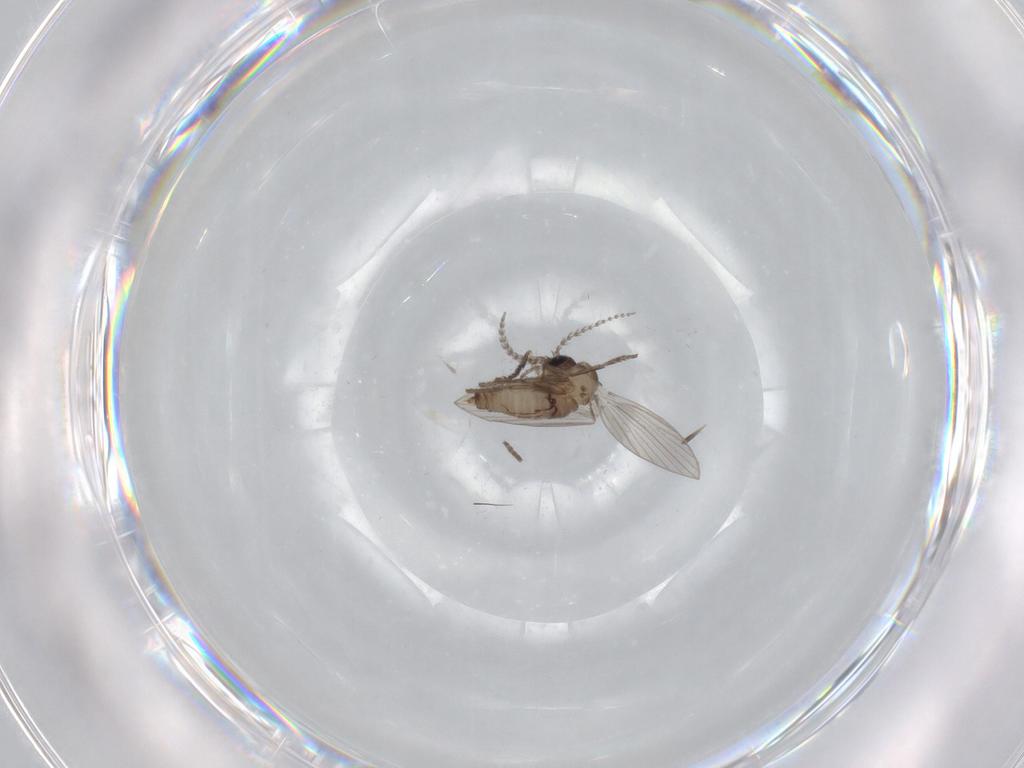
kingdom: Animalia
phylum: Arthropoda
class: Insecta
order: Diptera
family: Psychodidae
